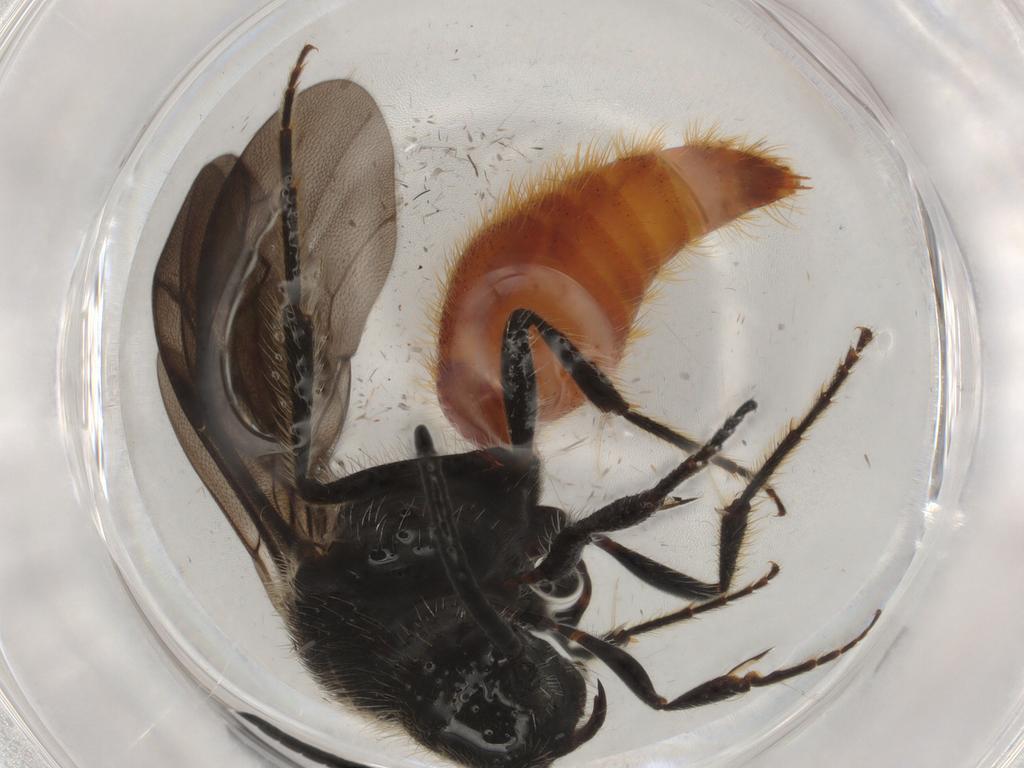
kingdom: Animalia
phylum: Arthropoda
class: Insecta
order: Hymenoptera
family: Mutillidae
